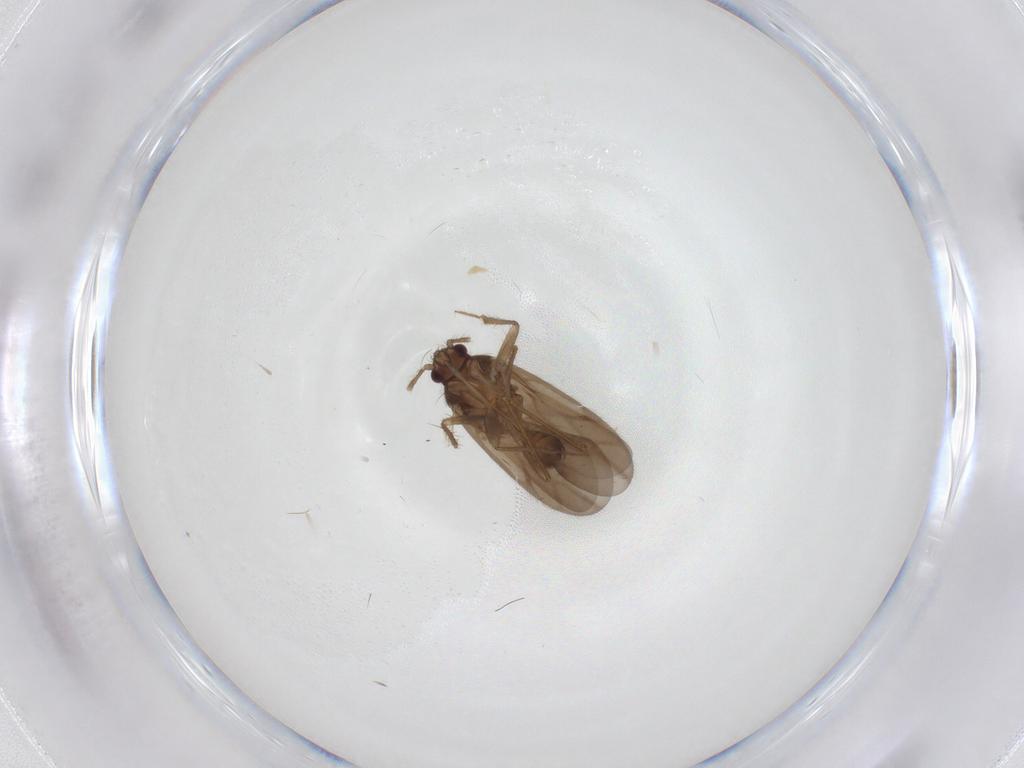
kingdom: Animalia
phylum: Arthropoda
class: Insecta
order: Hemiptera
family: Ceratocombidae
